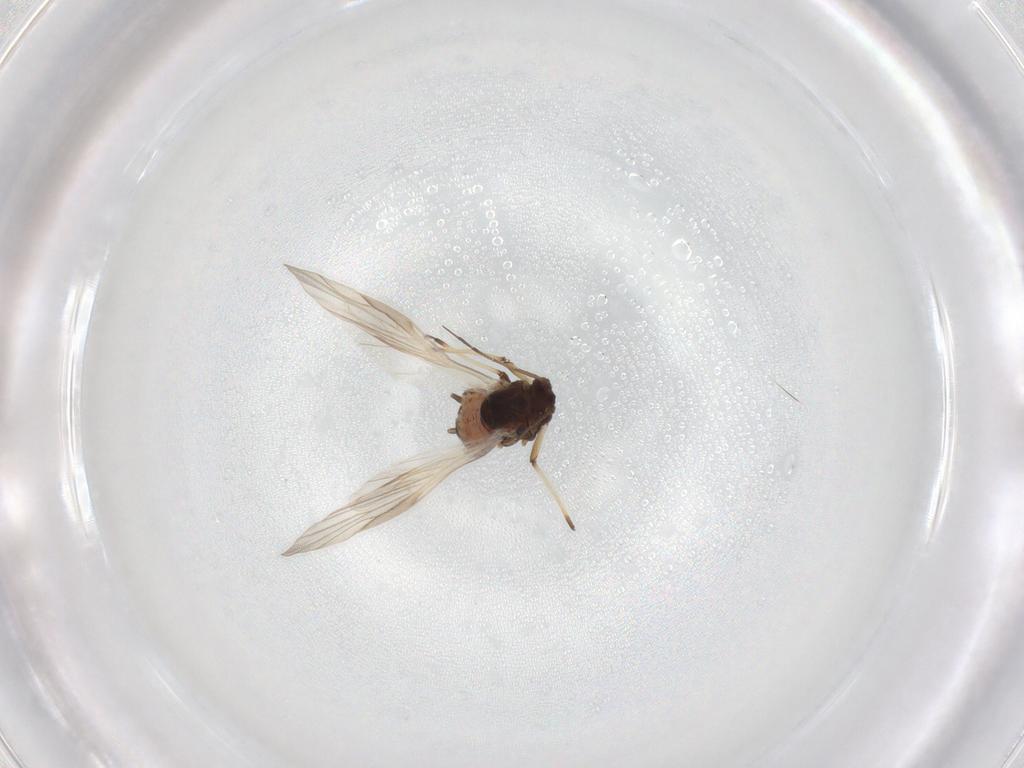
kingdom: Animalia
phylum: Arthropoda
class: Insecta
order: Hemiptera
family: Aphididae
